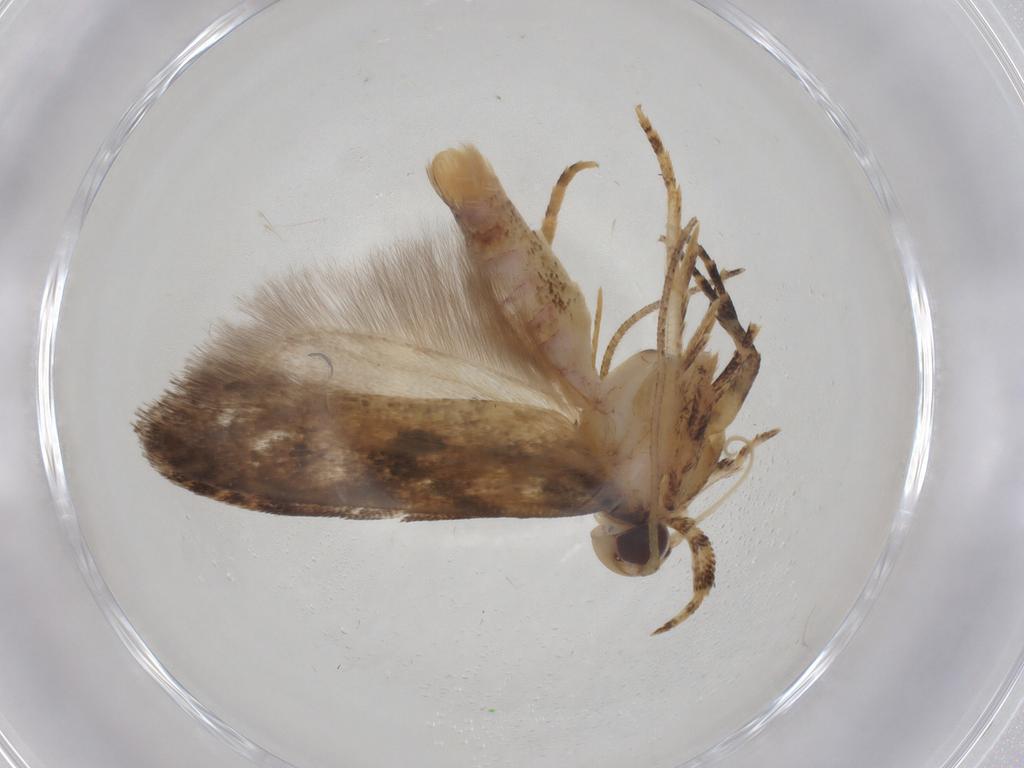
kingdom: Animalia
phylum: Arthropoda
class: Insecta
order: Lepidoptera
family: Gelechiidae
